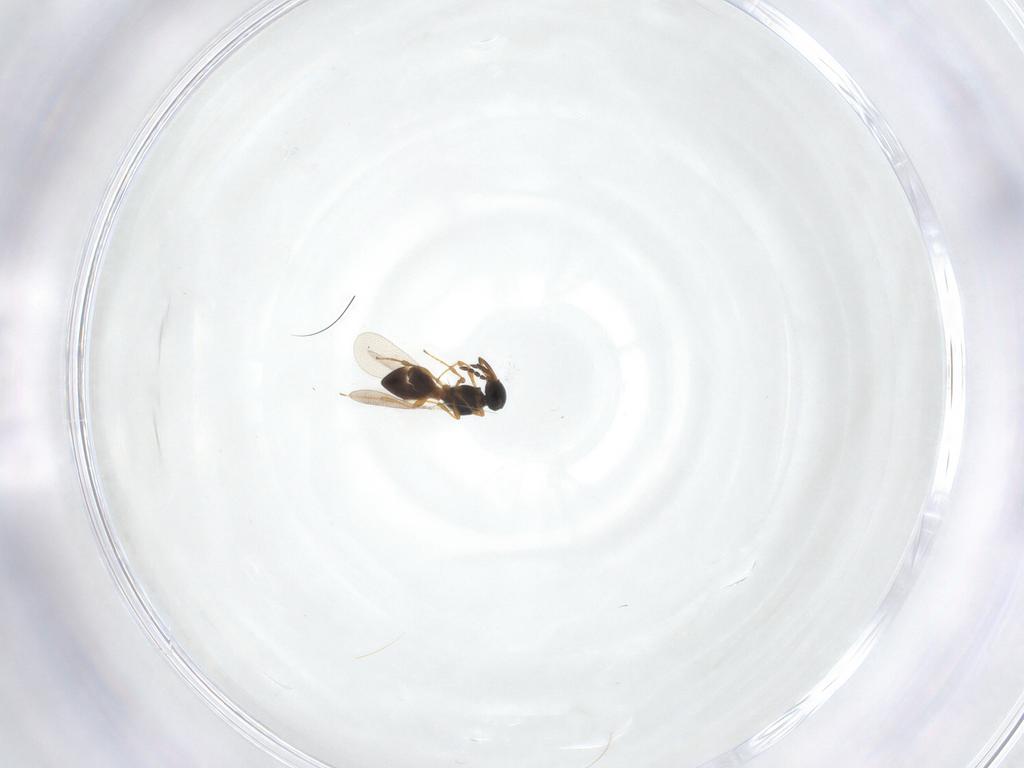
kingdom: Animalia
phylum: Arthropoda
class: Insecta
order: Hymenoptera
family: Platygastridae
